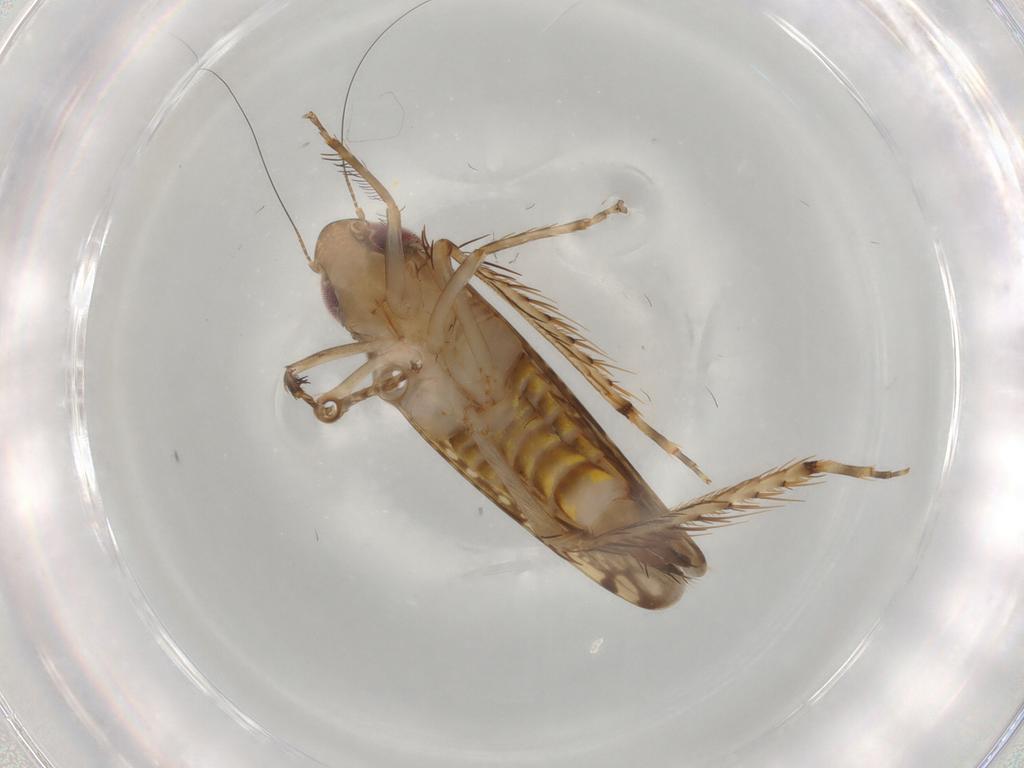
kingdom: Animalia
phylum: Arthropoda
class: Insecta
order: Hemiptera
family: Cicadellidae
